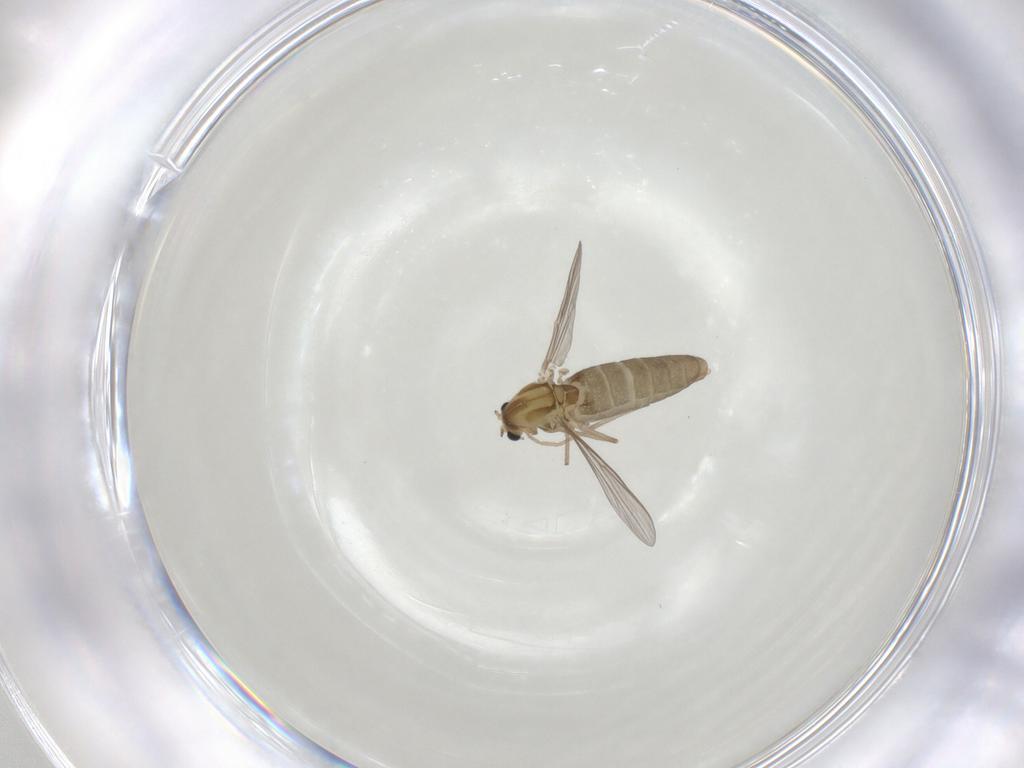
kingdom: Animalia
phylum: Arthropoda
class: Insecta
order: Diptera
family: Chironomidae
